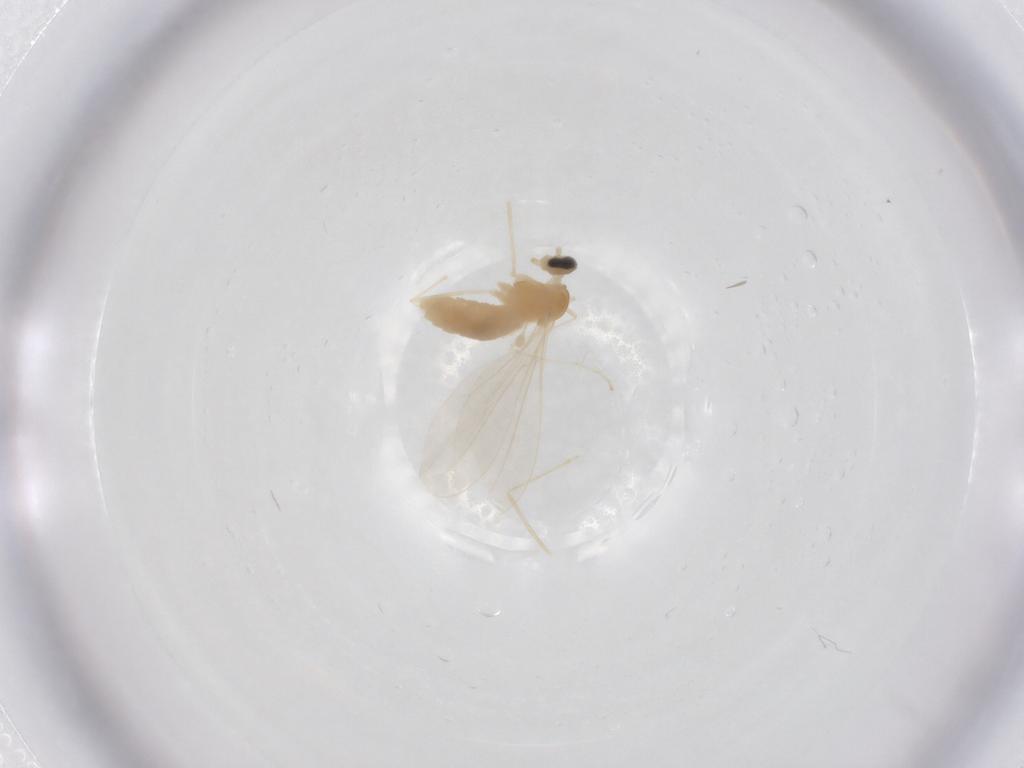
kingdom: Animalia
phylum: Arthropoda
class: Insecta
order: Diptera
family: Cecidomyiidae
